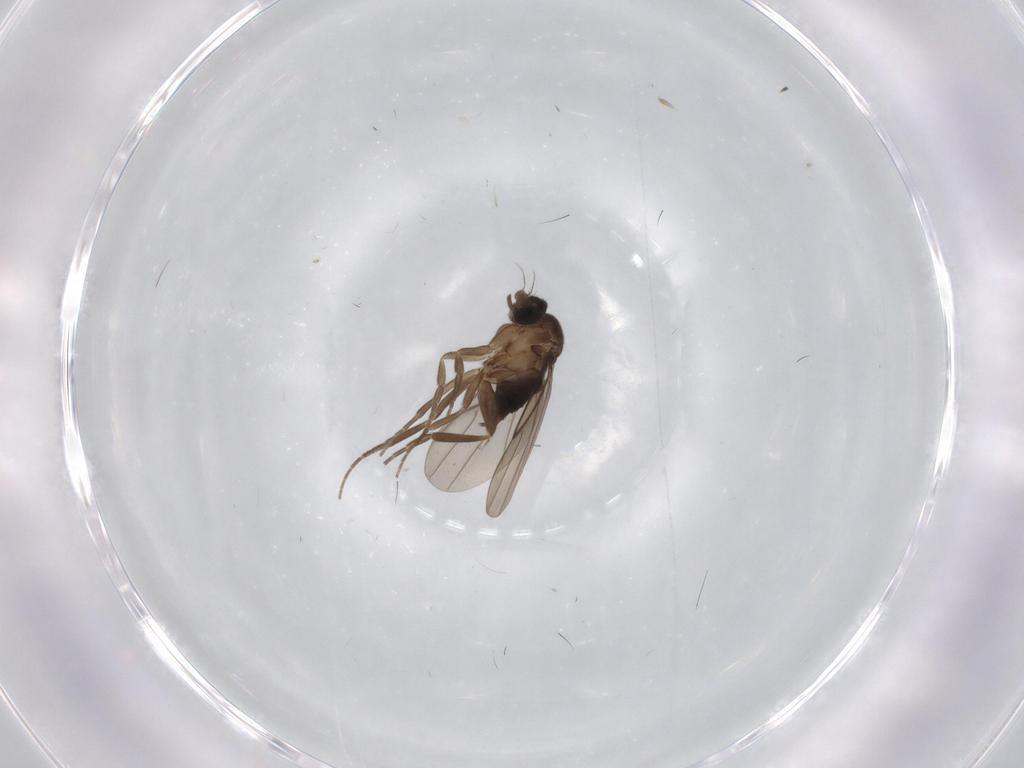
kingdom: Animalia
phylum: Arthropoda
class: Insecta
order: Diptera
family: Phoridae
